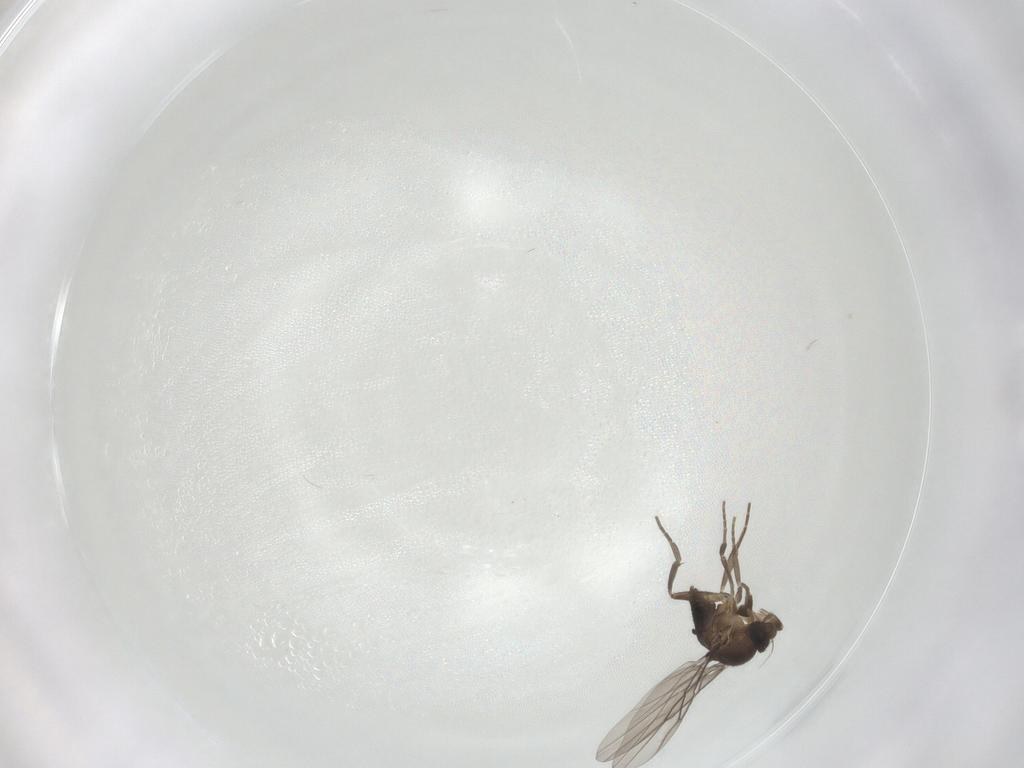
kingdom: Animalia
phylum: Arthropoda
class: Insecta
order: Diptera
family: Phoridae
